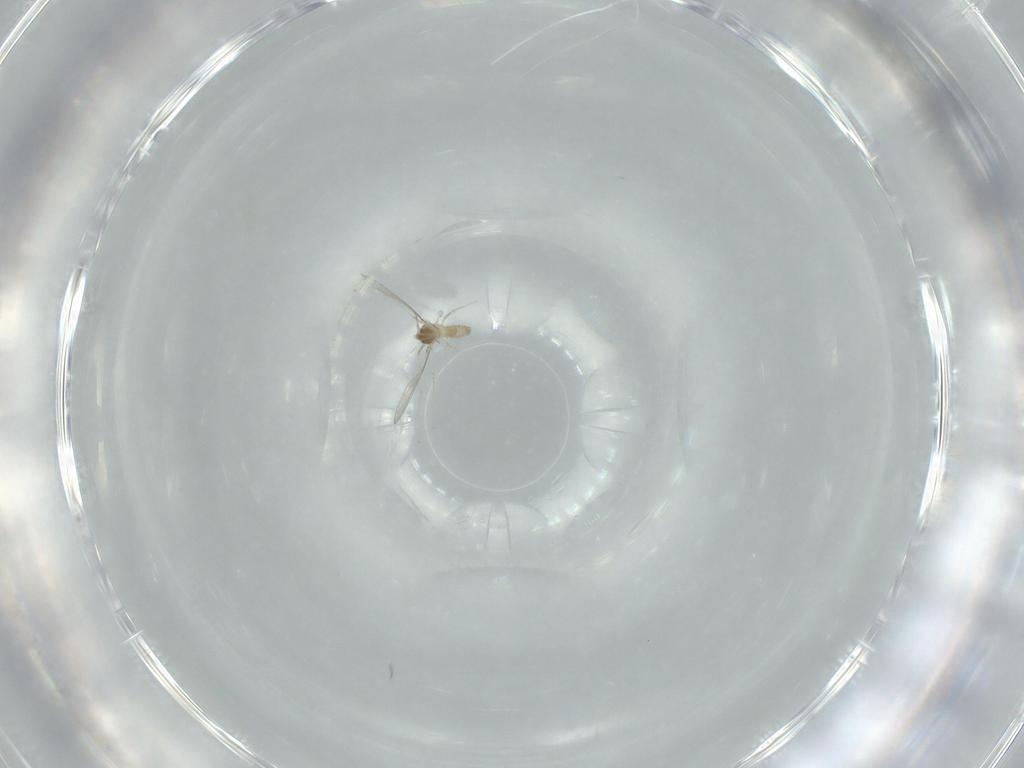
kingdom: Animalia
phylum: Arthropoda
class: Insecta
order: Diptera
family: Cecidomyiidae
